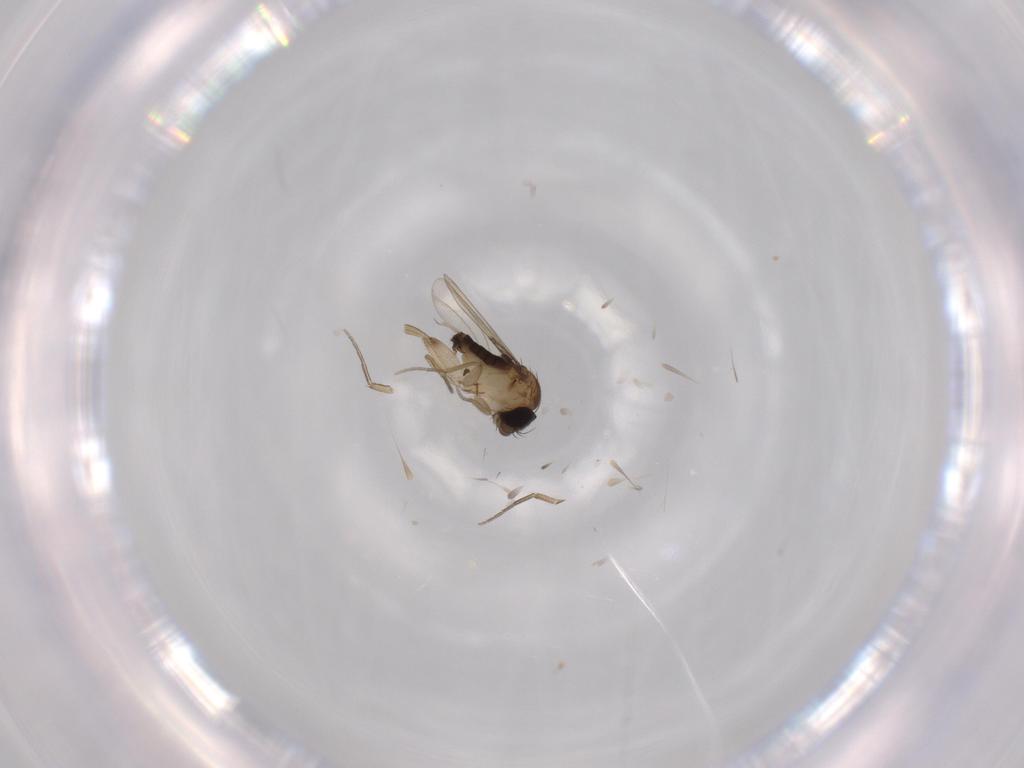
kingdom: Animalia
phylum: Arthropoda
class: Insecta
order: Diptera
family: Phoridae
